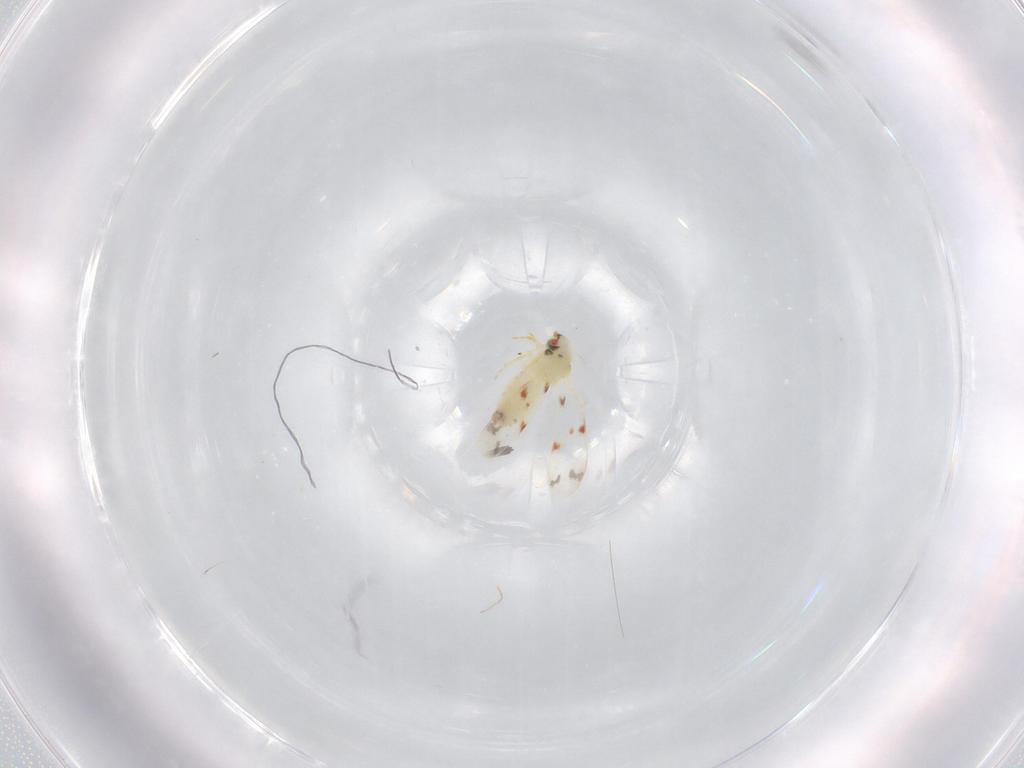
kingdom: Animalia
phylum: Arthropoda
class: Insecta
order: Hemiptera
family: Aleyrodidae
